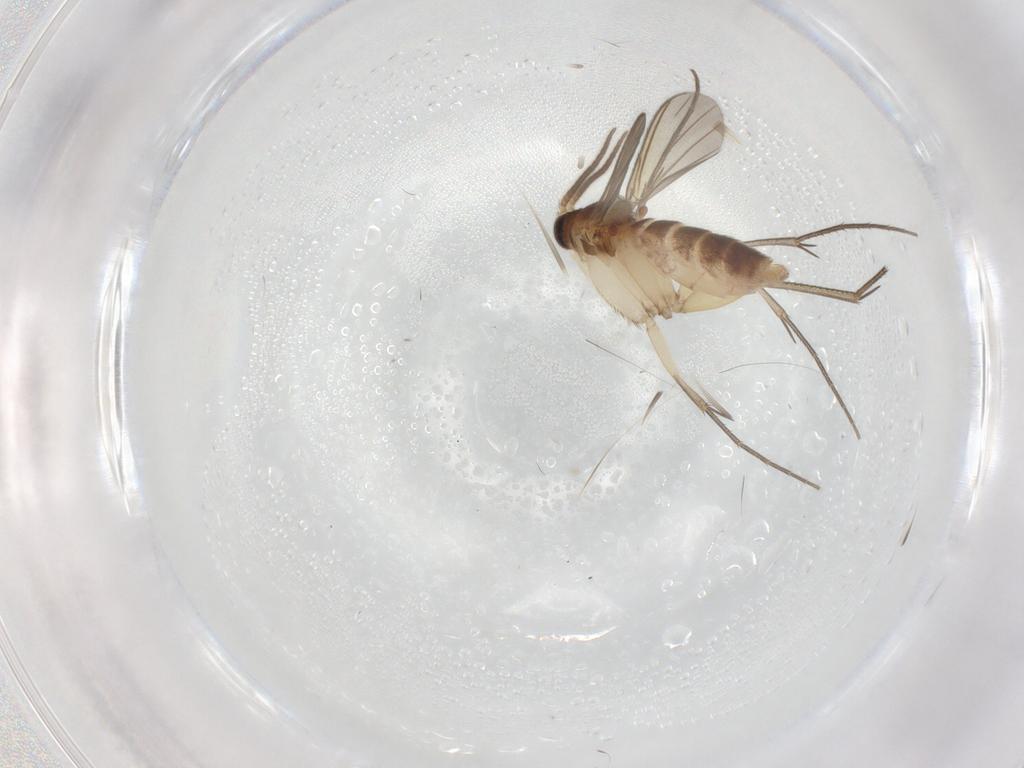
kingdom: Animalia
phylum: Arthropoda
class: Insecta
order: Diptera
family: Mycetophilidae
